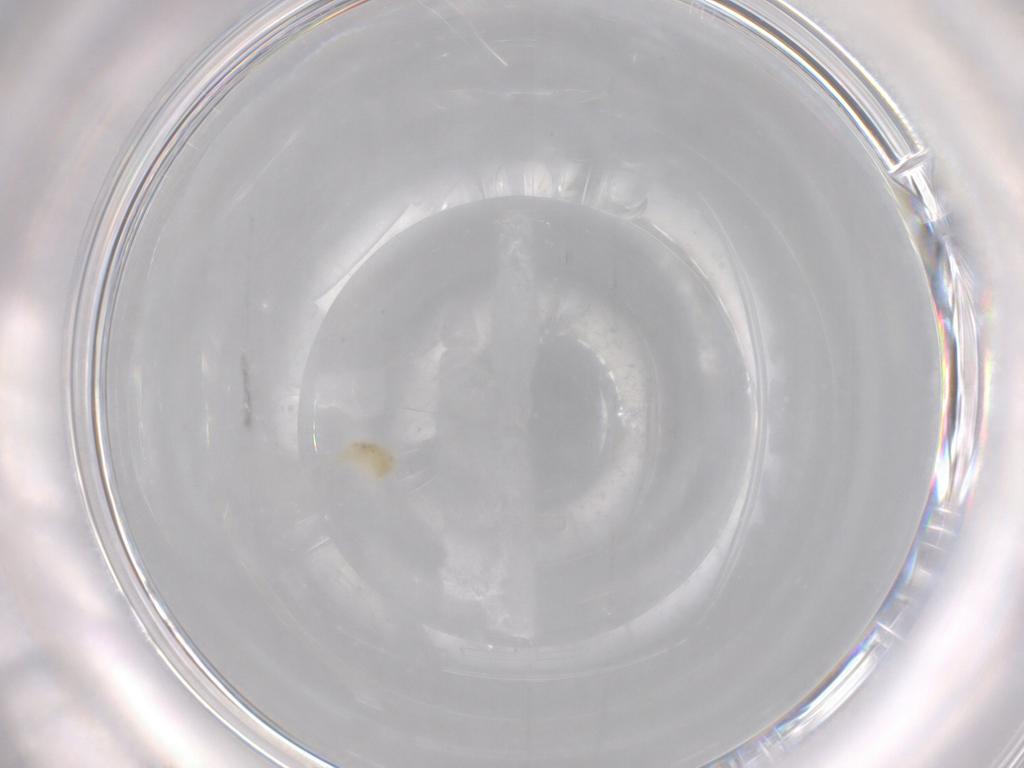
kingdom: Animalia
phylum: Arthropoda
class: Arachnida
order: Trombidiformes
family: Eupodidae
